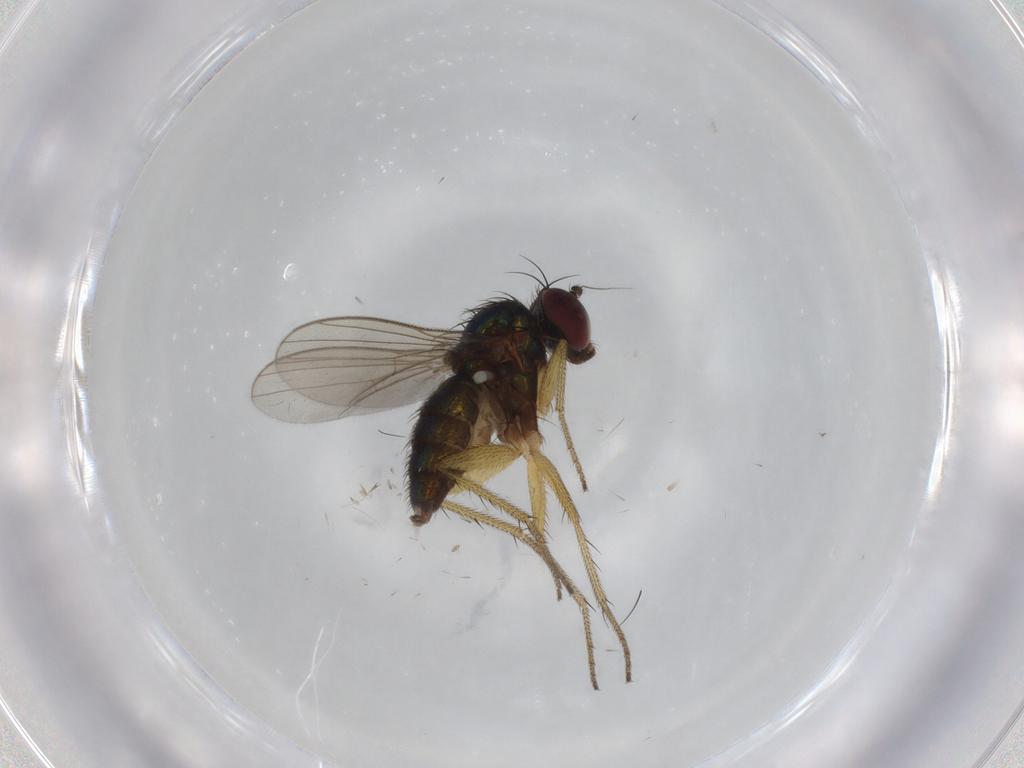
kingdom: Animalia
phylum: Arthropoda
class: Insecta
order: Diptera
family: Dolichopodidae
